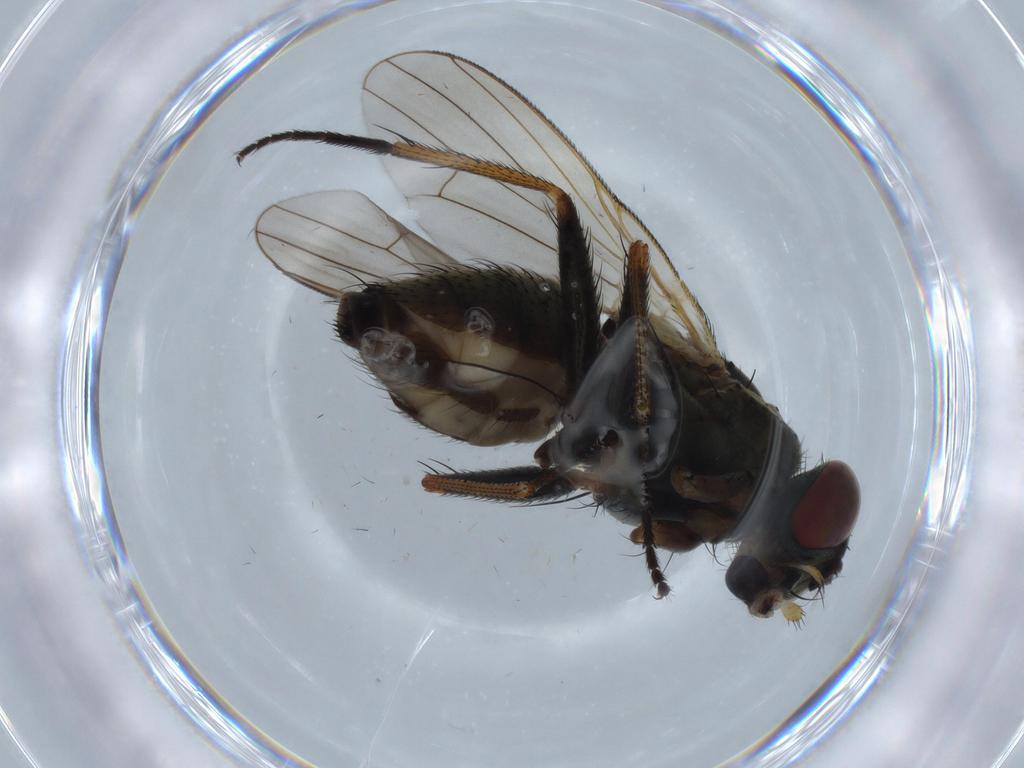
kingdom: Animalia
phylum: Arthropoda
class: Insecta
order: Diptera
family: Muscidae
